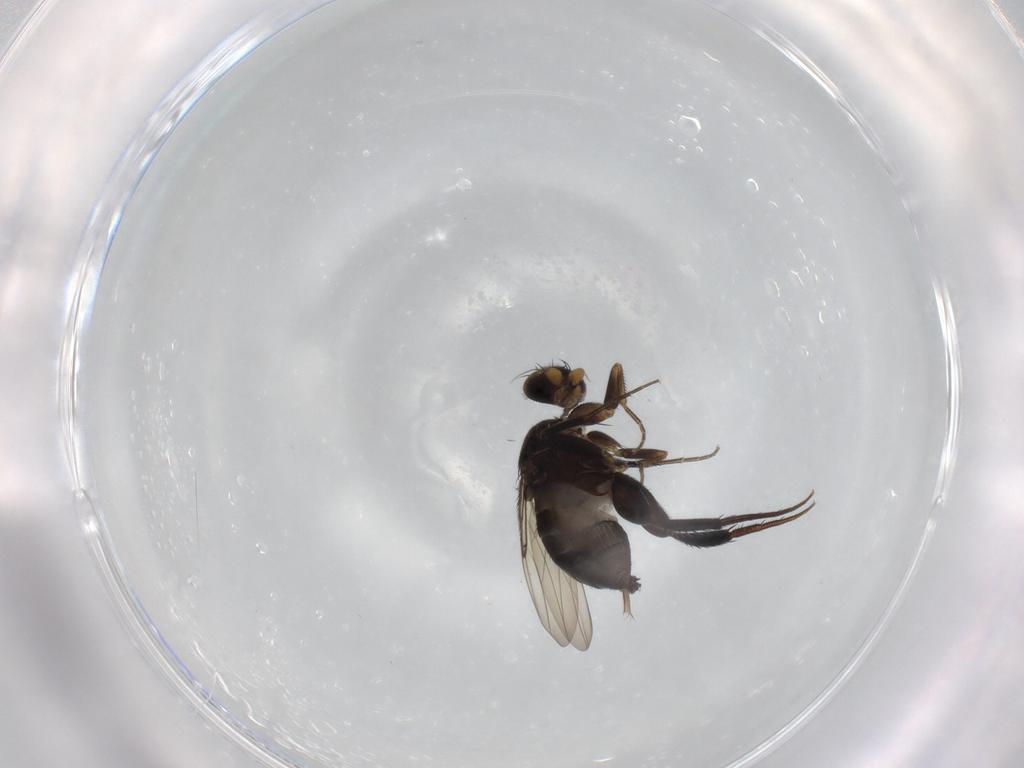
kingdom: Animalia
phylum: Arthropoda
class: Insecta
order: Diptera
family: Phoridae
